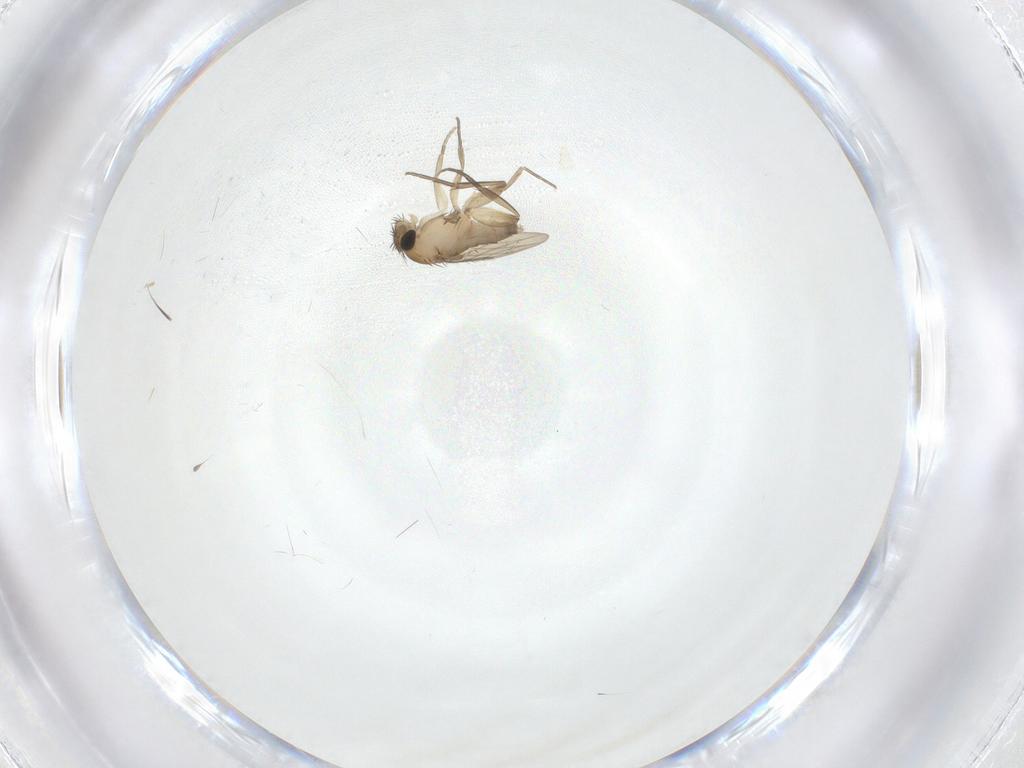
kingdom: Animalia
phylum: Arthropoda
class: Insecta
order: Diptera
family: Phoridae
